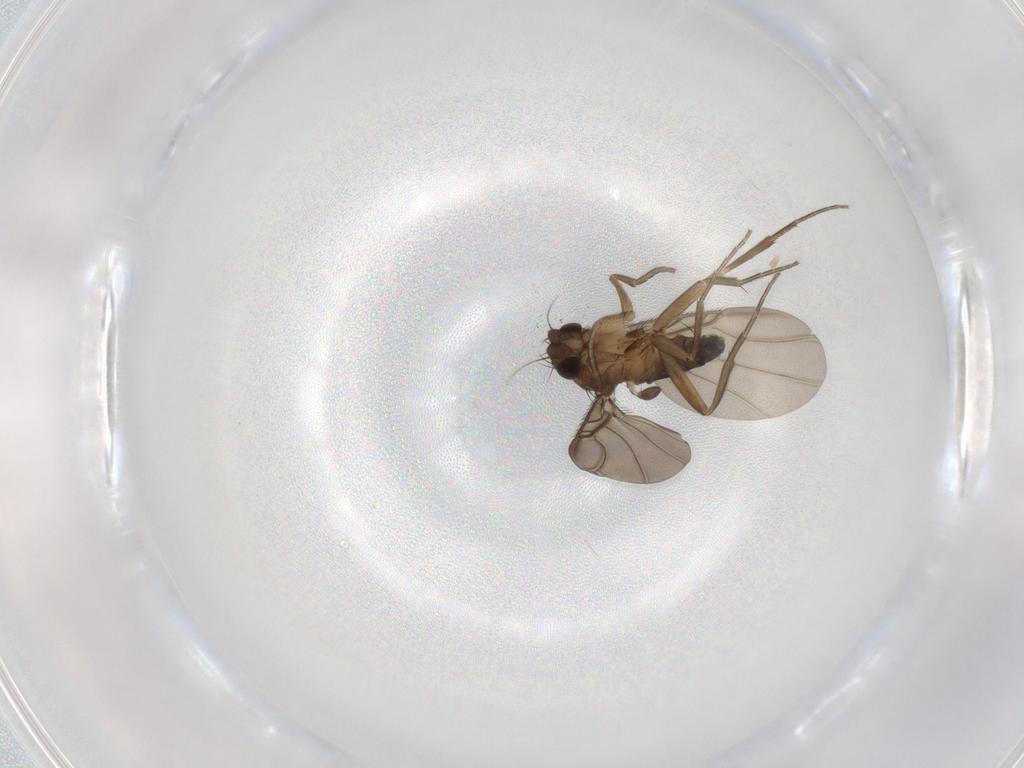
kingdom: Animalia
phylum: Arthropoda
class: Insecta
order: Diptera
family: Phoridae
